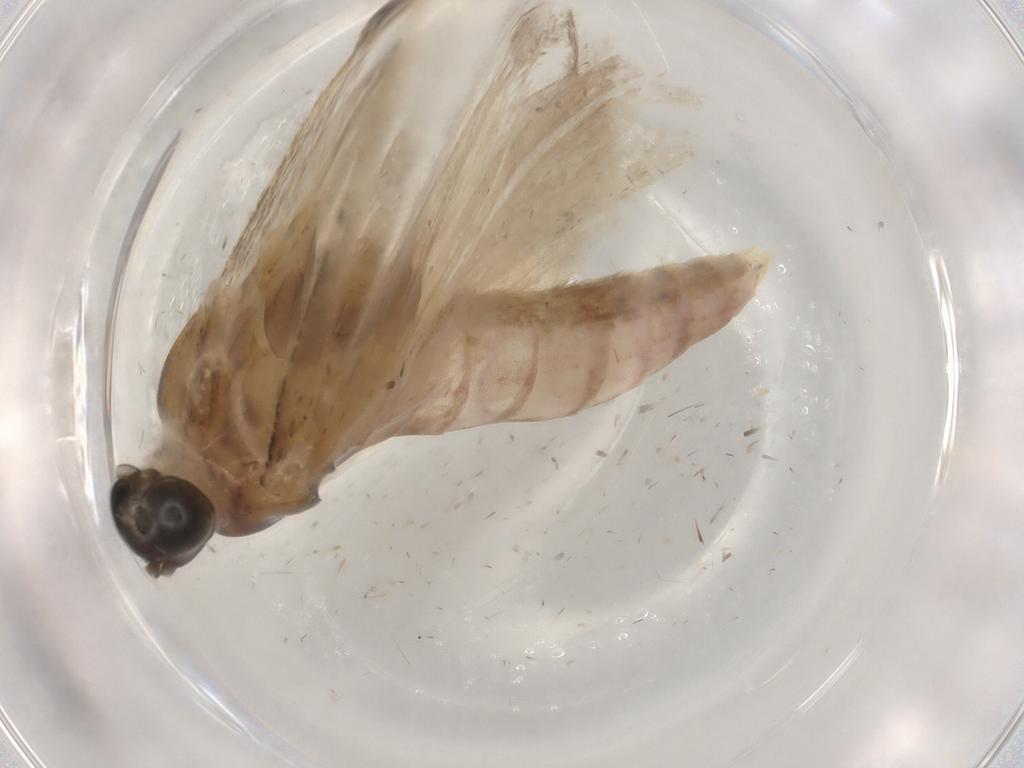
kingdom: Animalia
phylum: Arthropoda
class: Insecta
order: Lepidoptera
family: Crambidae
